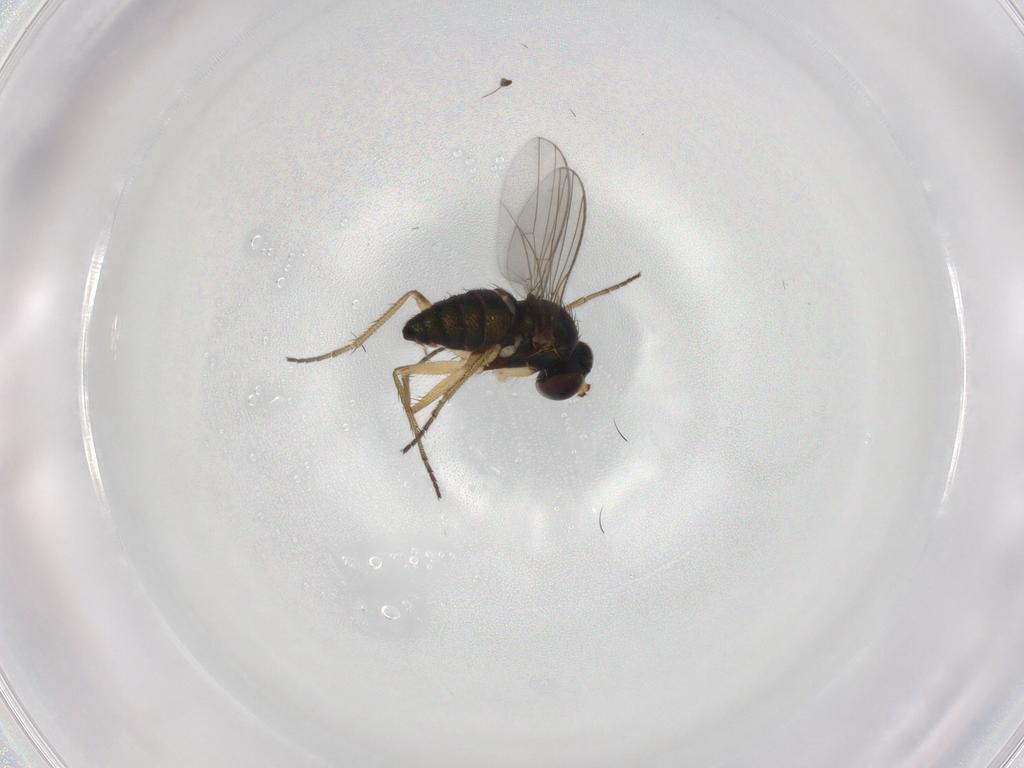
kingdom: Animalia
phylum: Arthropoda
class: Insecta
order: Diptera
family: Dolichopodidae
